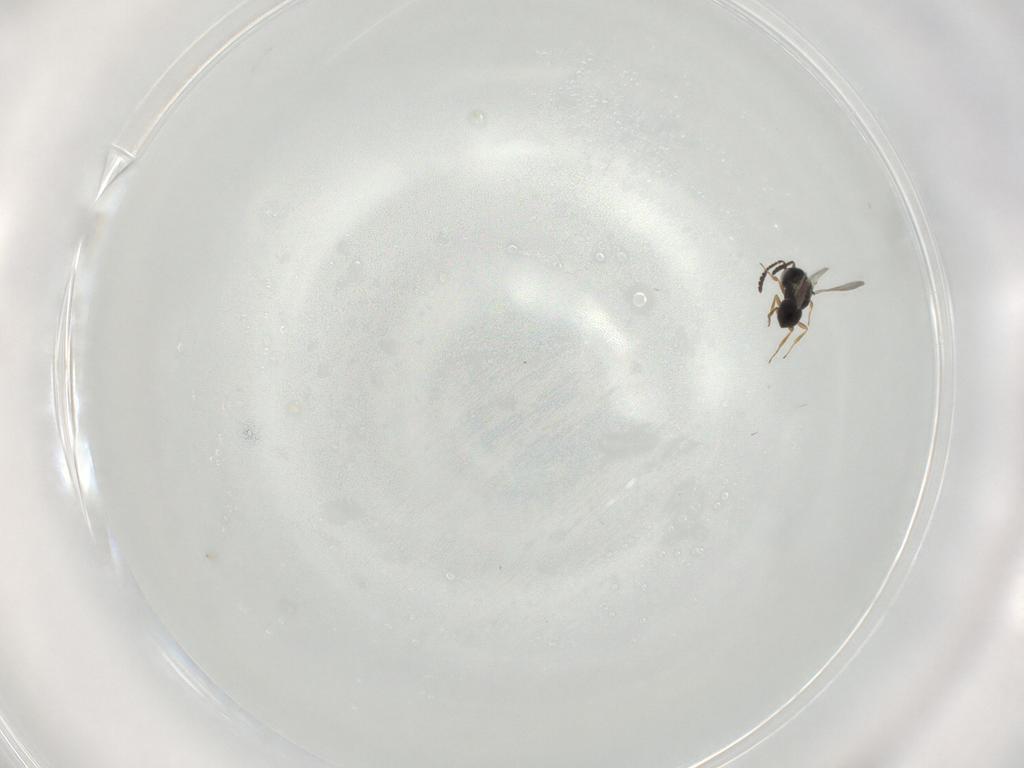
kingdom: Animalia
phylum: Arthropoda
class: Insecta
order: Hymenoptera
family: Scelionidae
